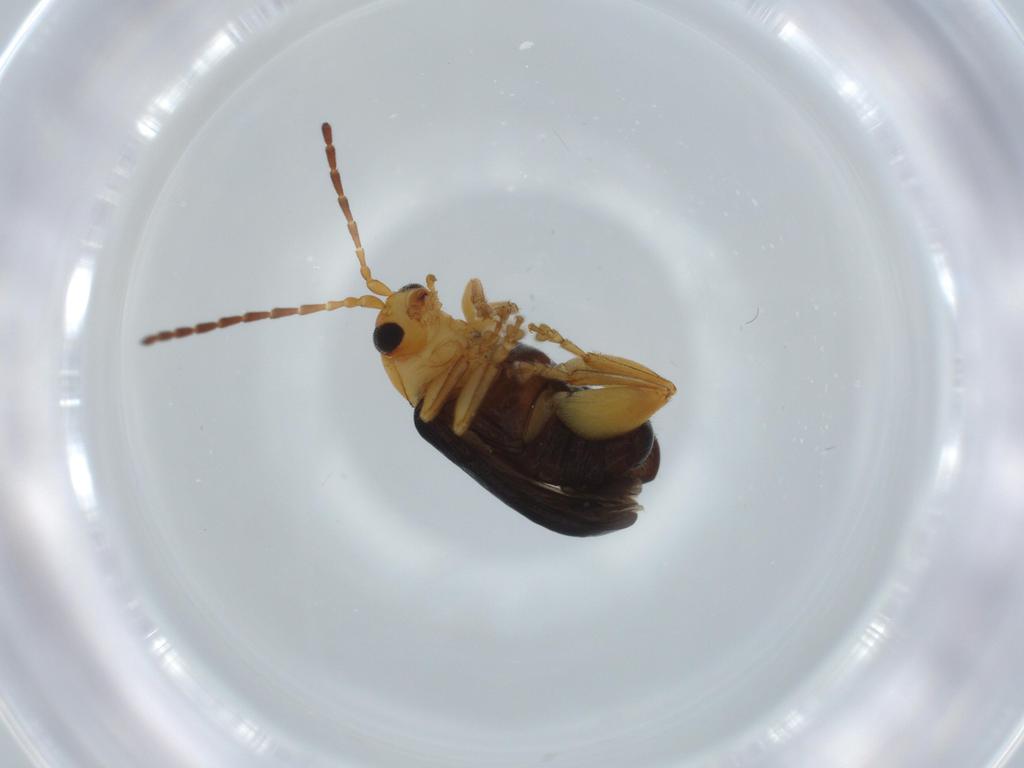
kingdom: Animalia
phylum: Arthropoda
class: Insecta
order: Coleoptera
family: Chrysomelidae
